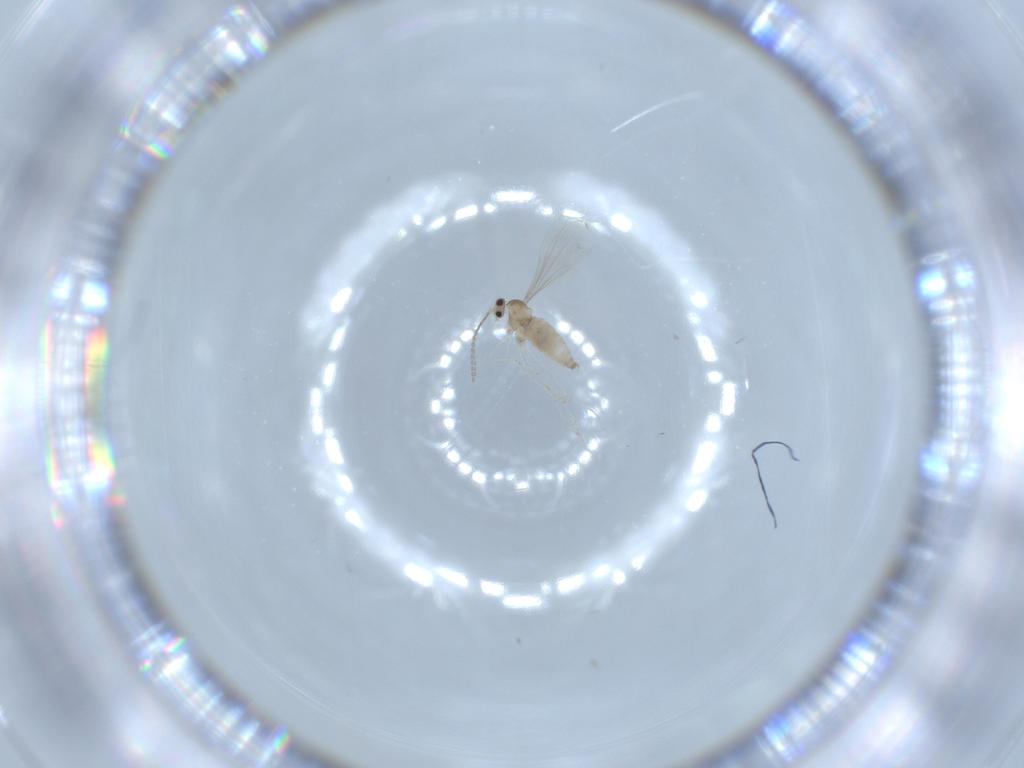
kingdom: Animalia
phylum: Arthropoda
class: Insecta
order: Diptera
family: Cecidomyiidae
